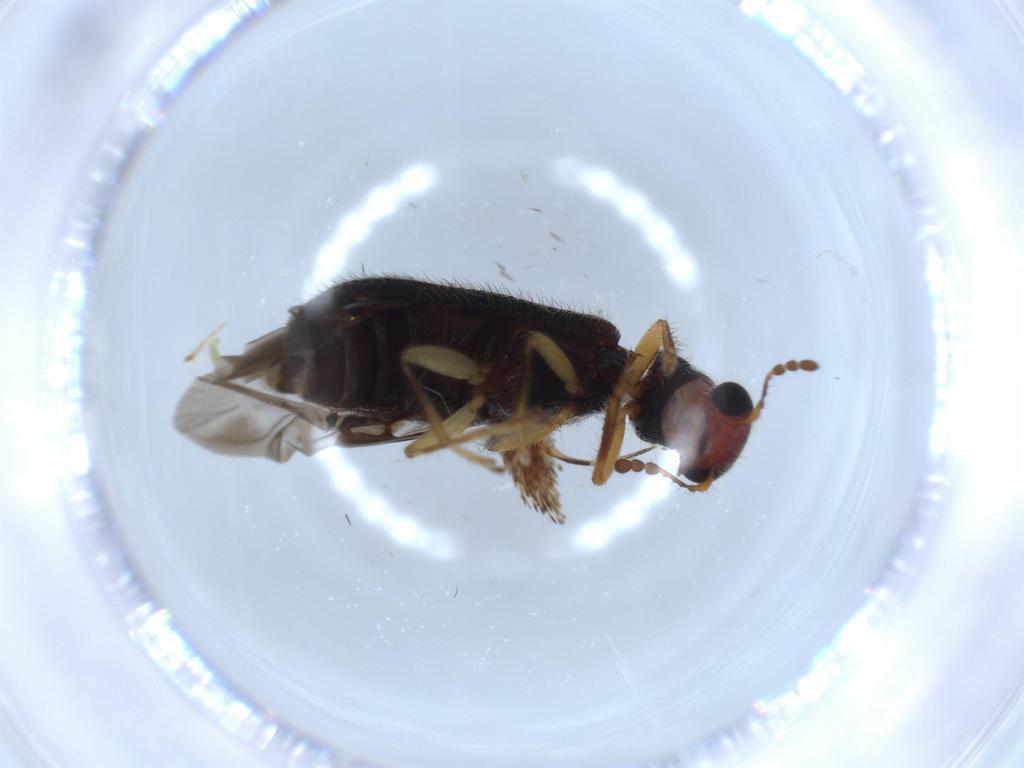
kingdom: Animalia
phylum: Arthropoda
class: Insecta
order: Coleoptera
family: Cleridae
